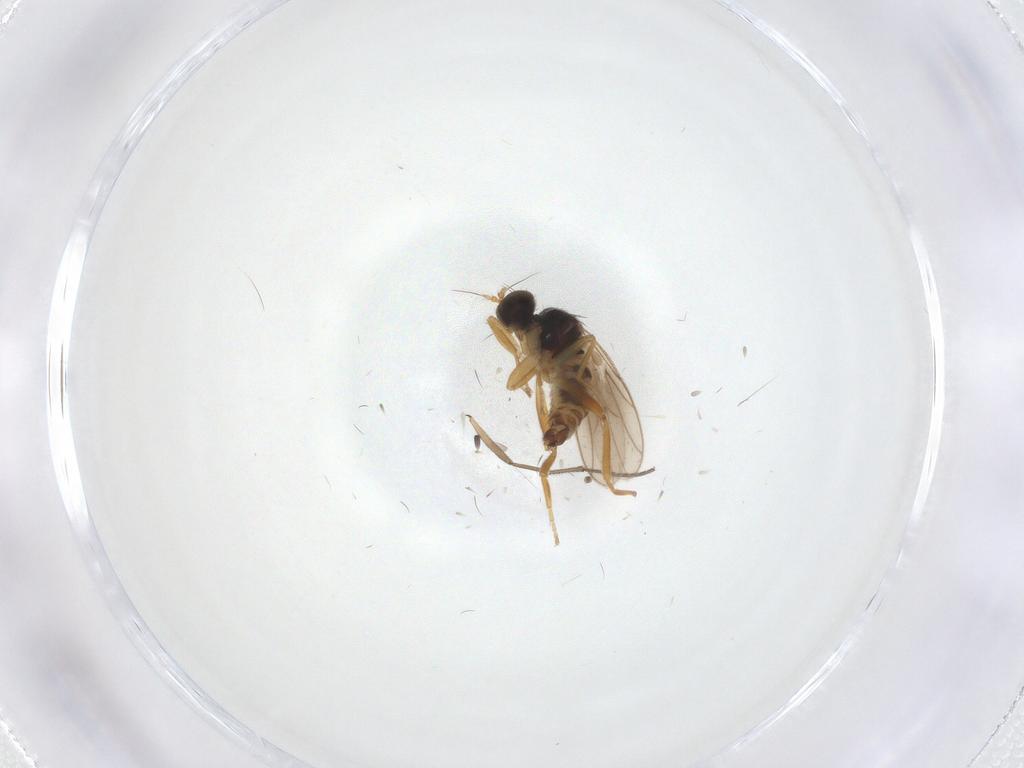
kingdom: Animalia
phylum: Arthropoda
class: Insecta
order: Diptera
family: Hybotidae
